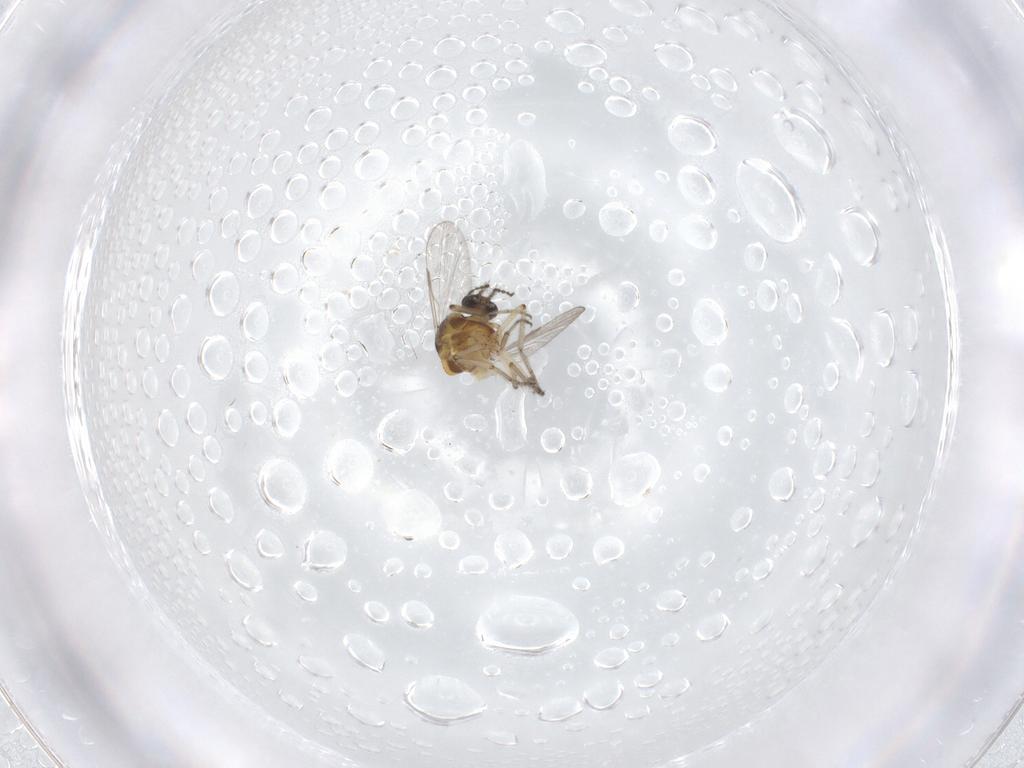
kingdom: Animalia
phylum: Arthropoda
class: Insecta
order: Diptera
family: Ceratopogonidae
